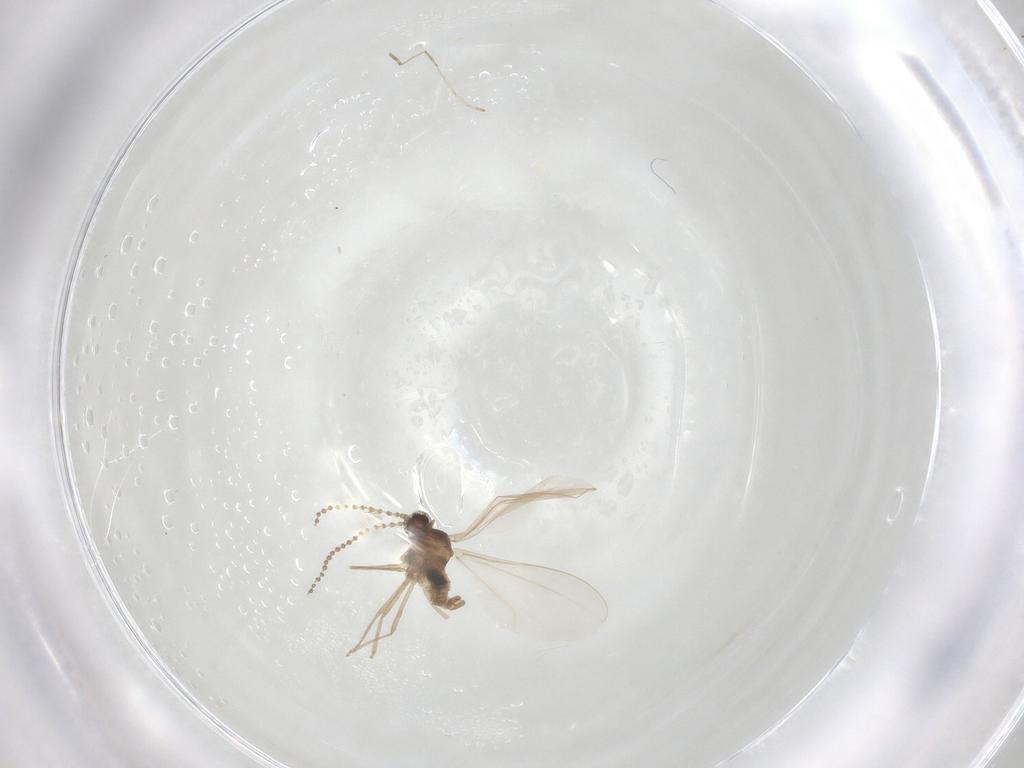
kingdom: Animalia
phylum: Arthropoda
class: Insecta
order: Diptera
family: Cecidomyiidae
